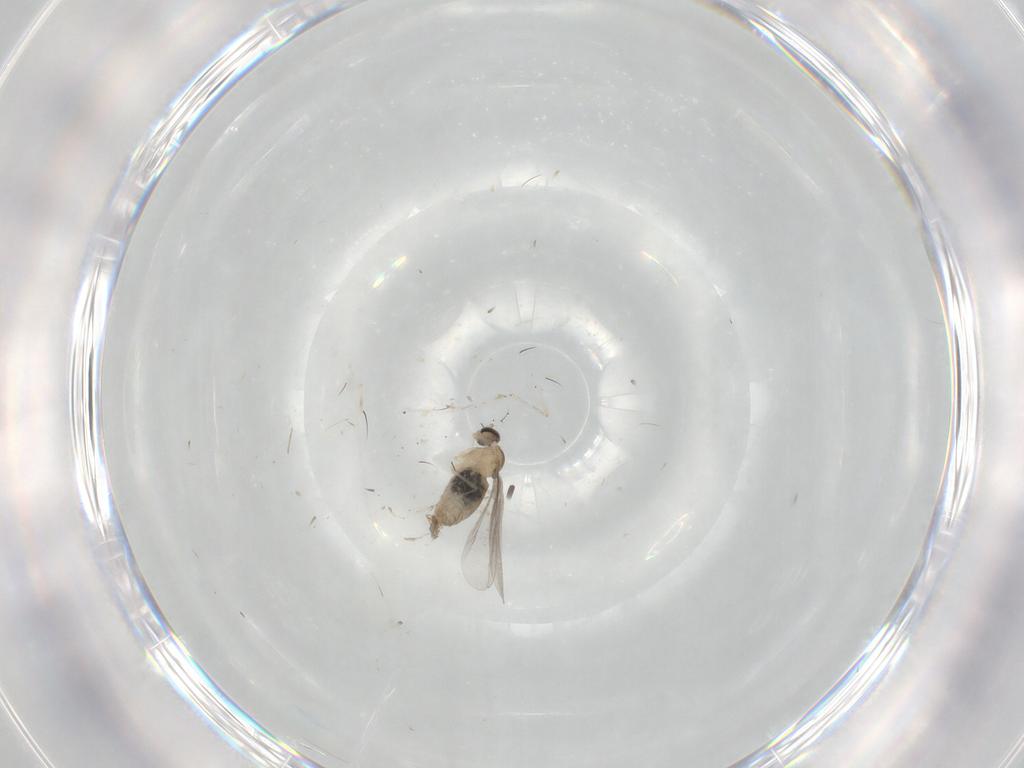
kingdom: Animalia
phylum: Arthropoda
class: Insecta
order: Diptera
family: Cecidomyiidae
